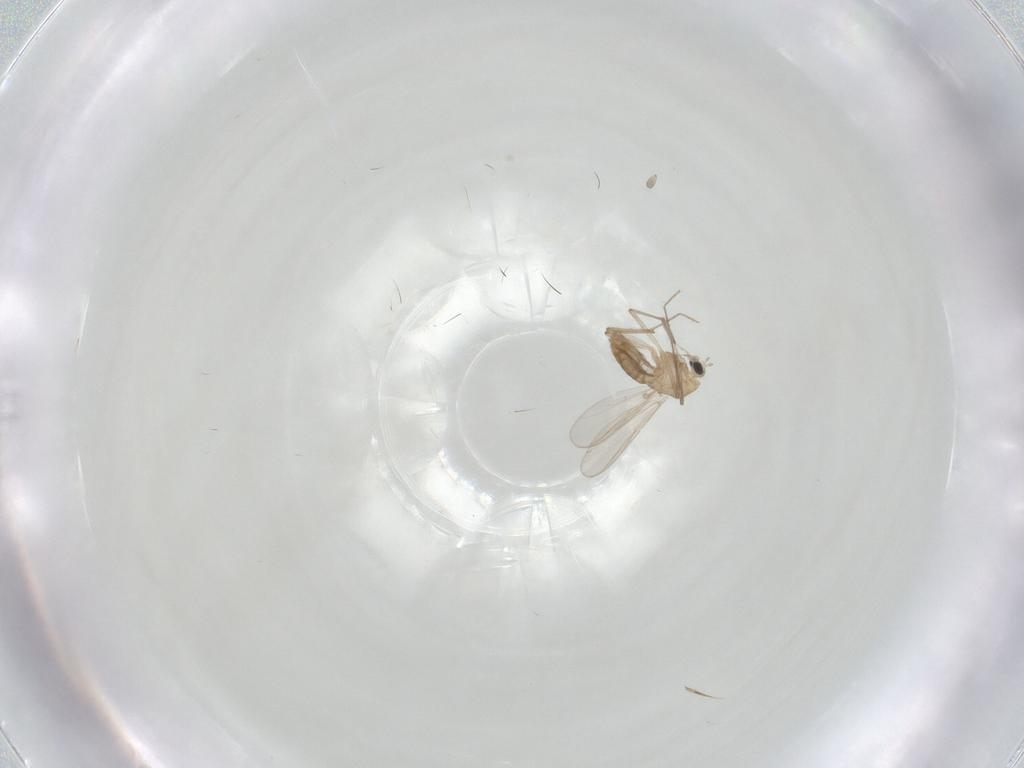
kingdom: Animalia
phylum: Arthropoda
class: Insecta
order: Diptera
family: Chironomidae
